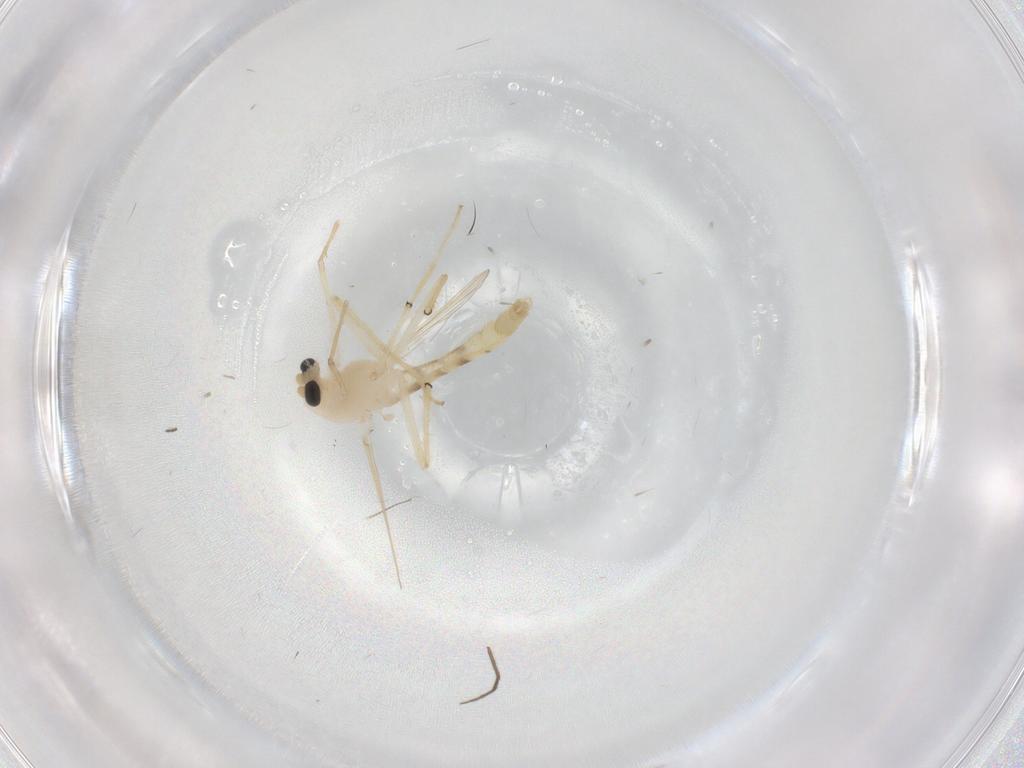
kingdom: Animalia
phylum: Arthropoda
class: Insecta
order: Diptera
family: Chironomidae
